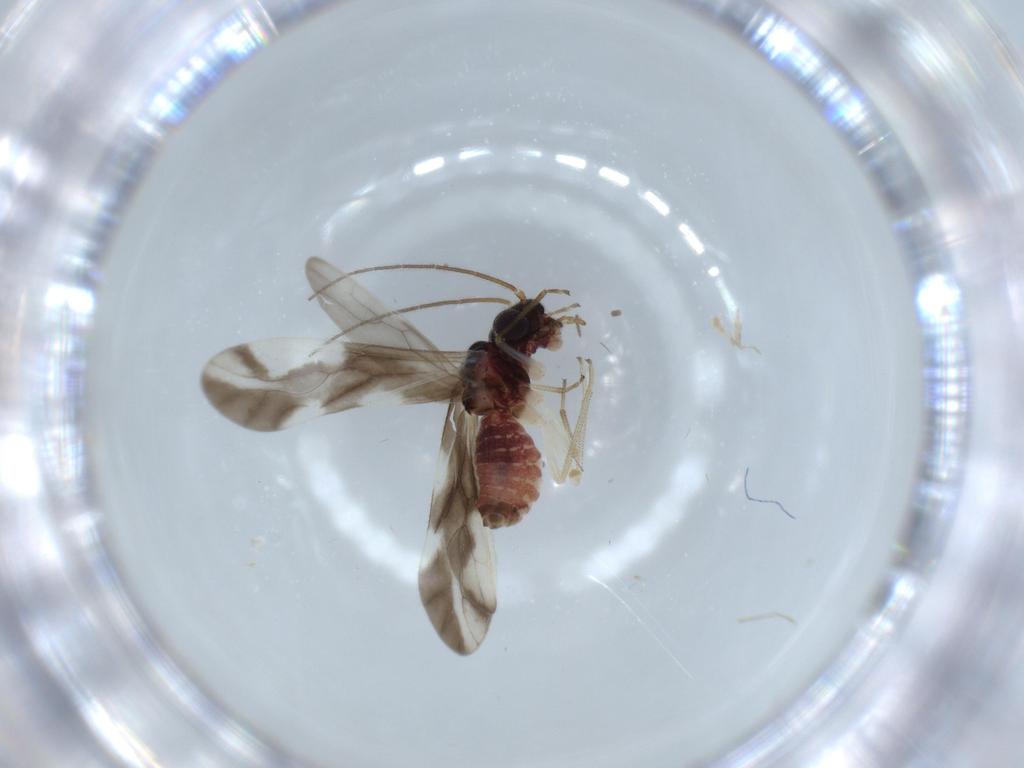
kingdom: Animalia
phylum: Arthropoda
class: Insecta
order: Psocodea
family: Caeciliusidae
